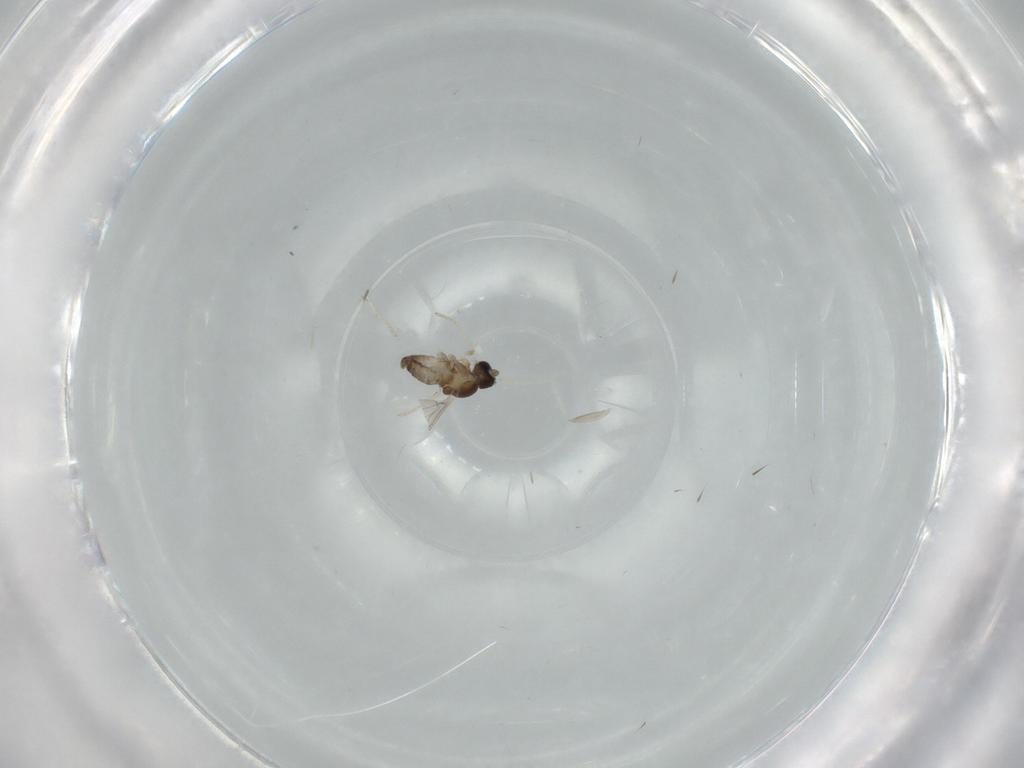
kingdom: Animalia
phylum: Arthropoda
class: Insecta
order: Diptera
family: Cecidomyiidae
